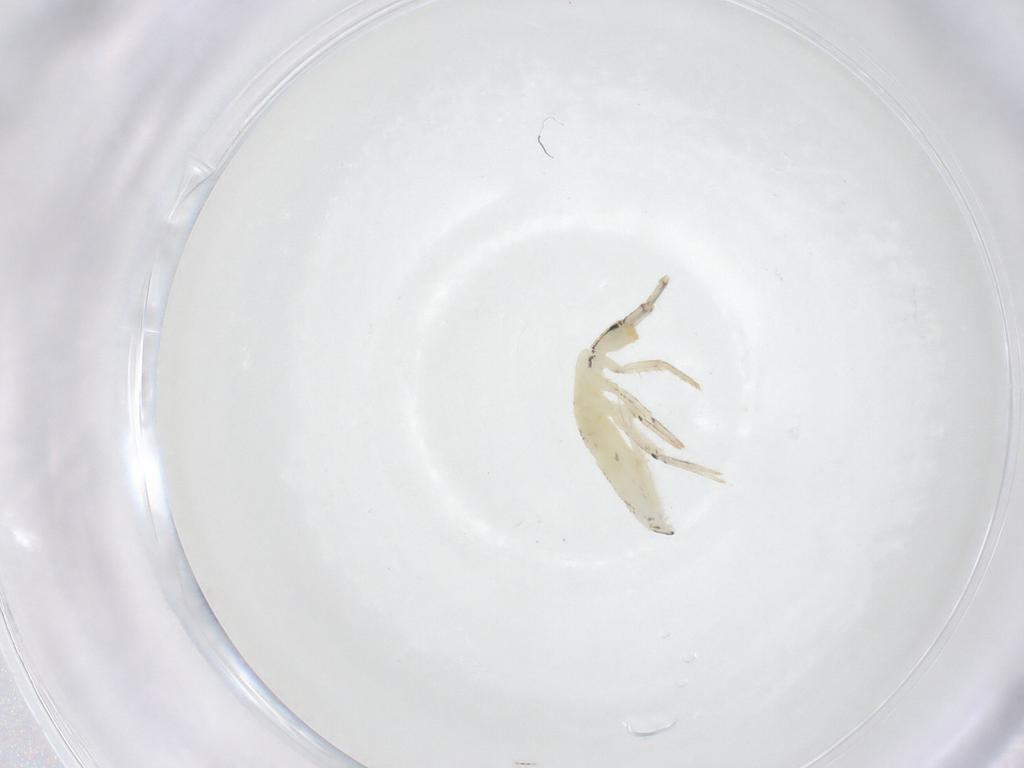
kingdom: Animalia
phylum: Arthropoda
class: Collembola
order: Entomobryomorpha
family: Entomobryidae
